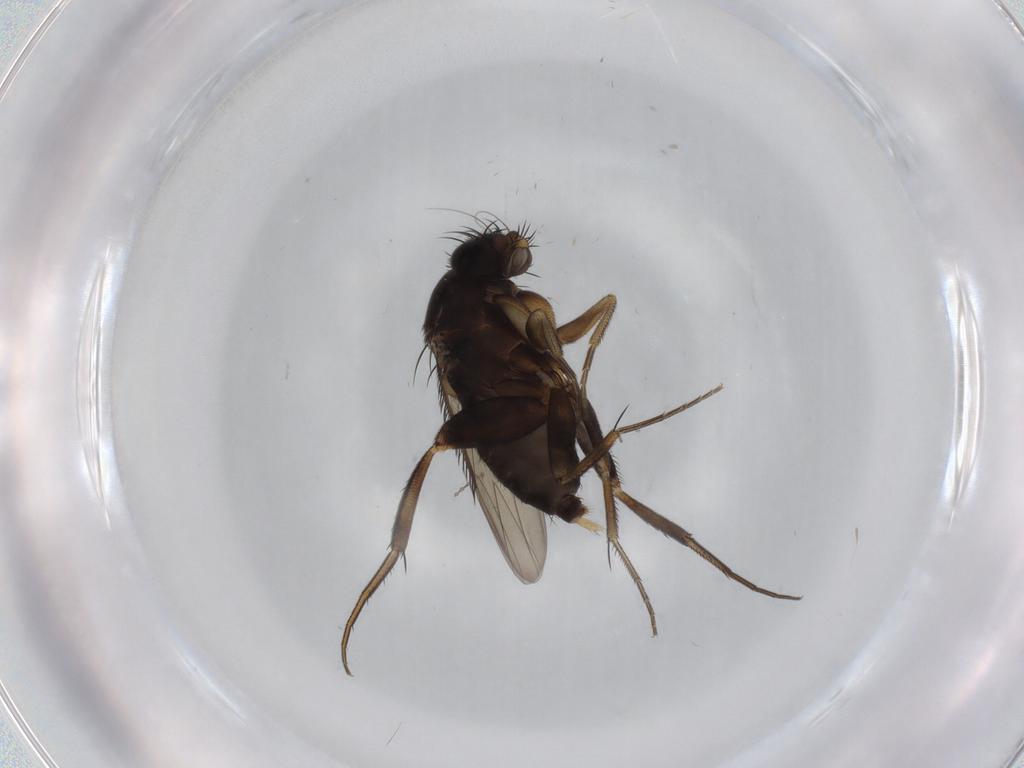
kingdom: Animalia
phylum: Arthropoda
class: Insecta
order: Diptera
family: Phoridae
